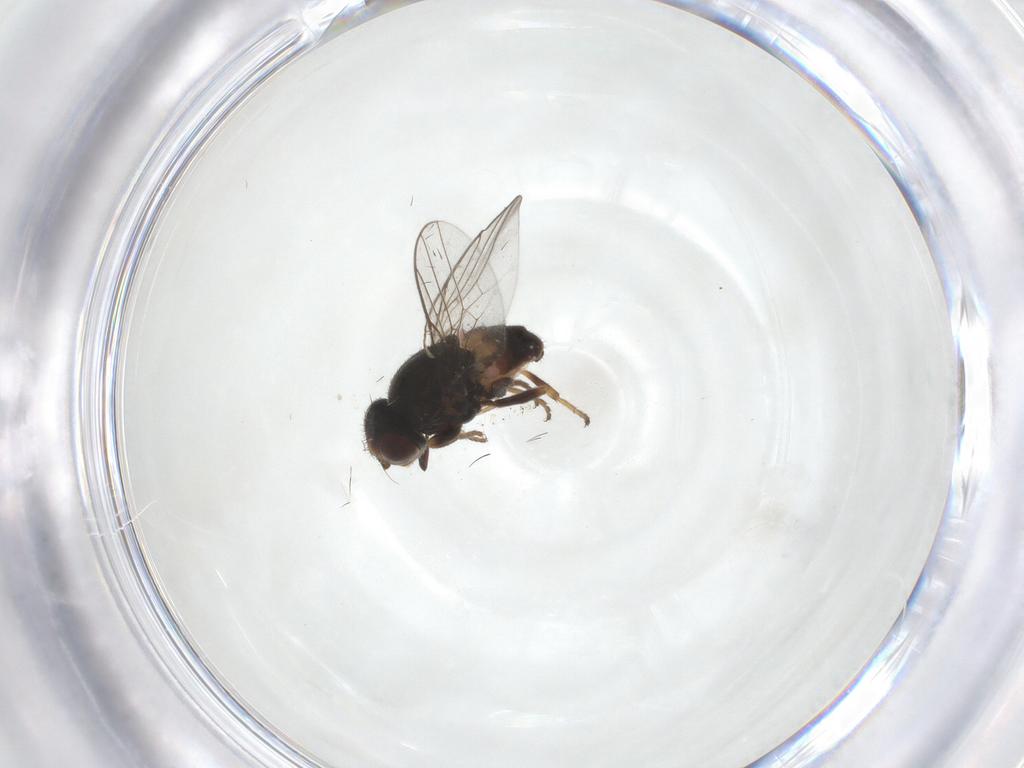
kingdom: Animalia
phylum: Arthropoda
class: Insecta
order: Diptera
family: Chloropidae
